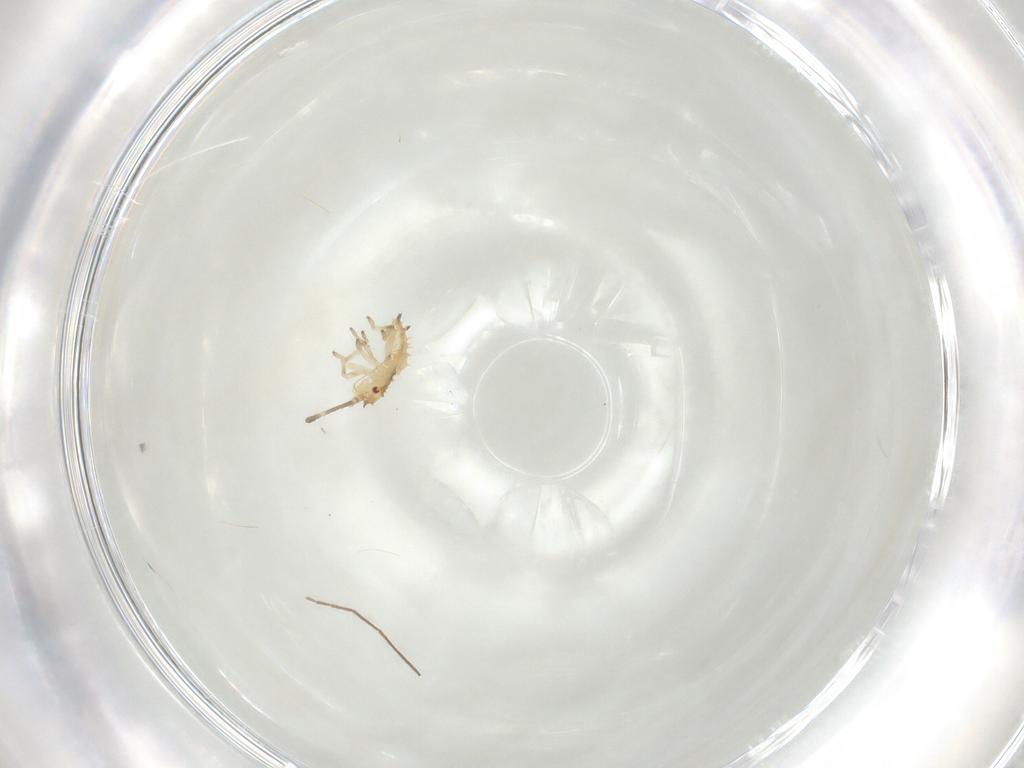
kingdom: Animalia
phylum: Arthropoda
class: Insecta
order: Hemiptera
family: Tingidae
